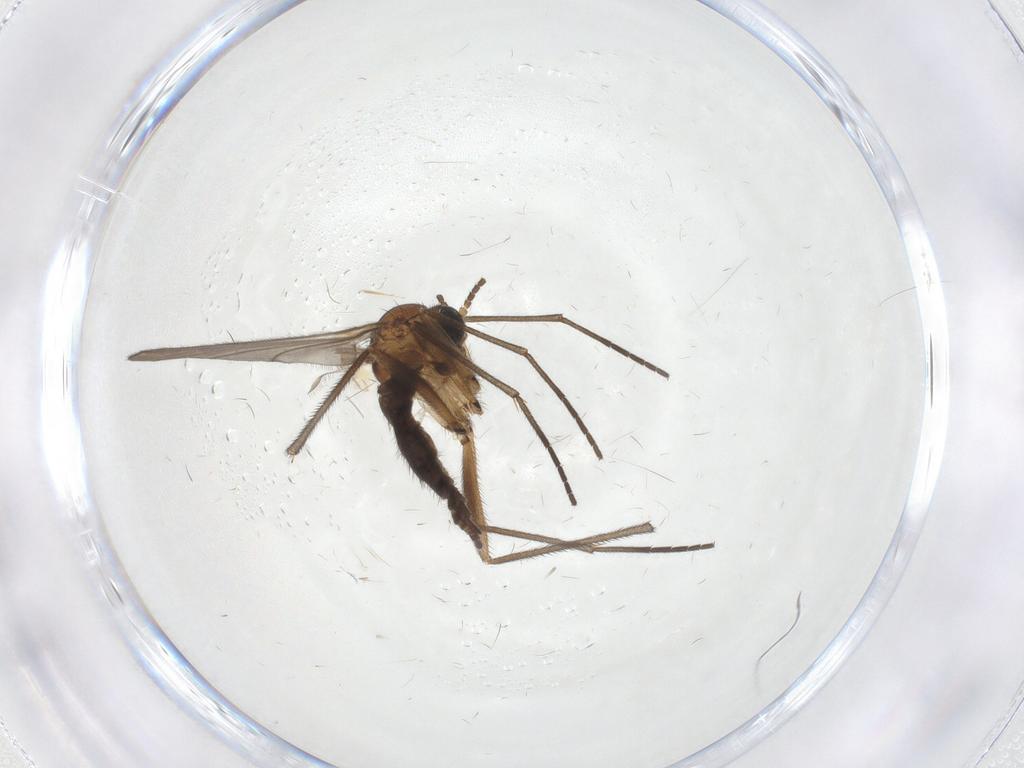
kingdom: Animalia
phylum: Arthropoda
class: Insecta
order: Diptera
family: Sciaridae
